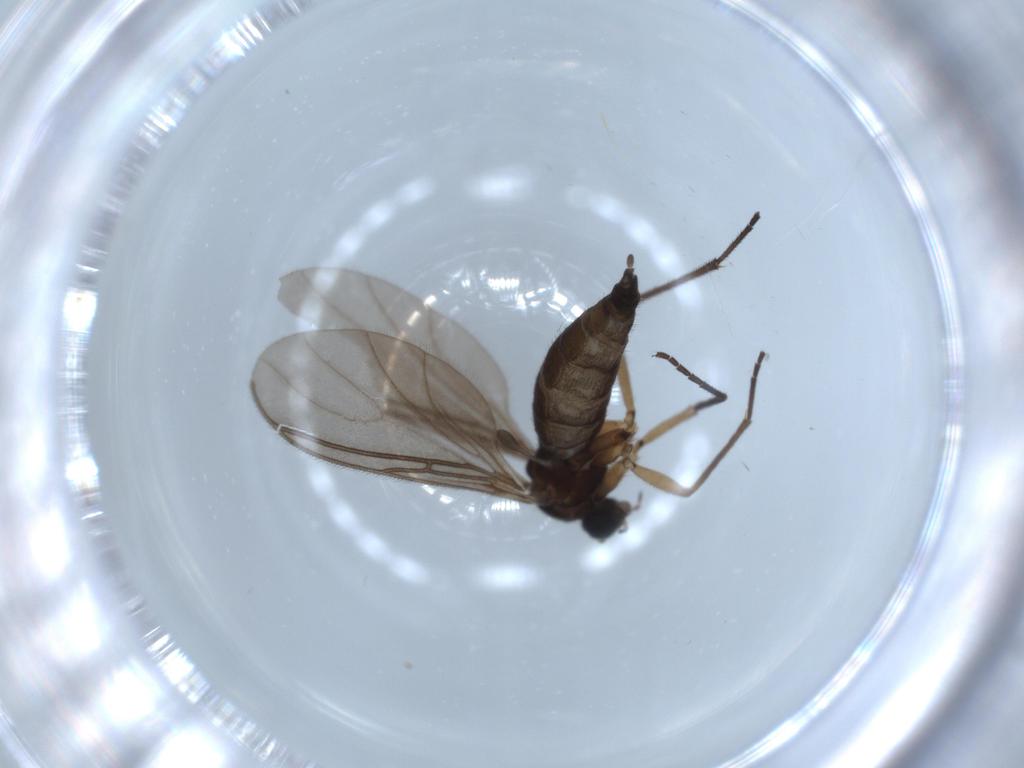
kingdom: Animalia
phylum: Arthropoda
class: Insecta
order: Diptera
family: Sciaridae
